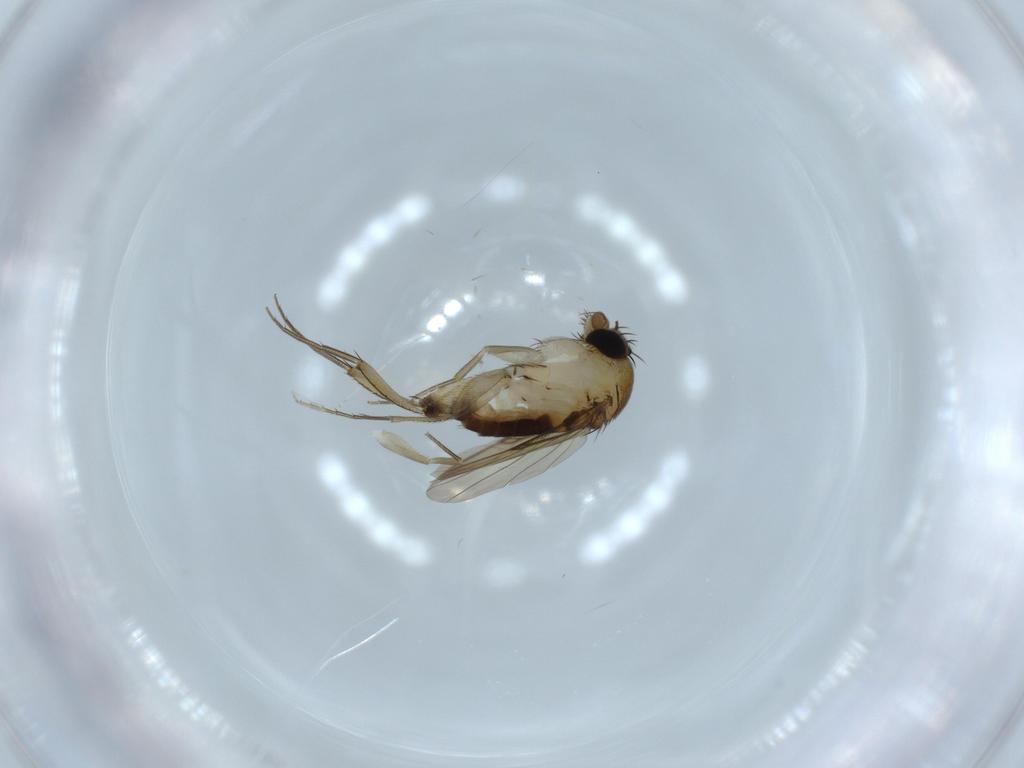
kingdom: Animalia
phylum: Arthropoda
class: Insecta
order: Diptera
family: Phoridae
